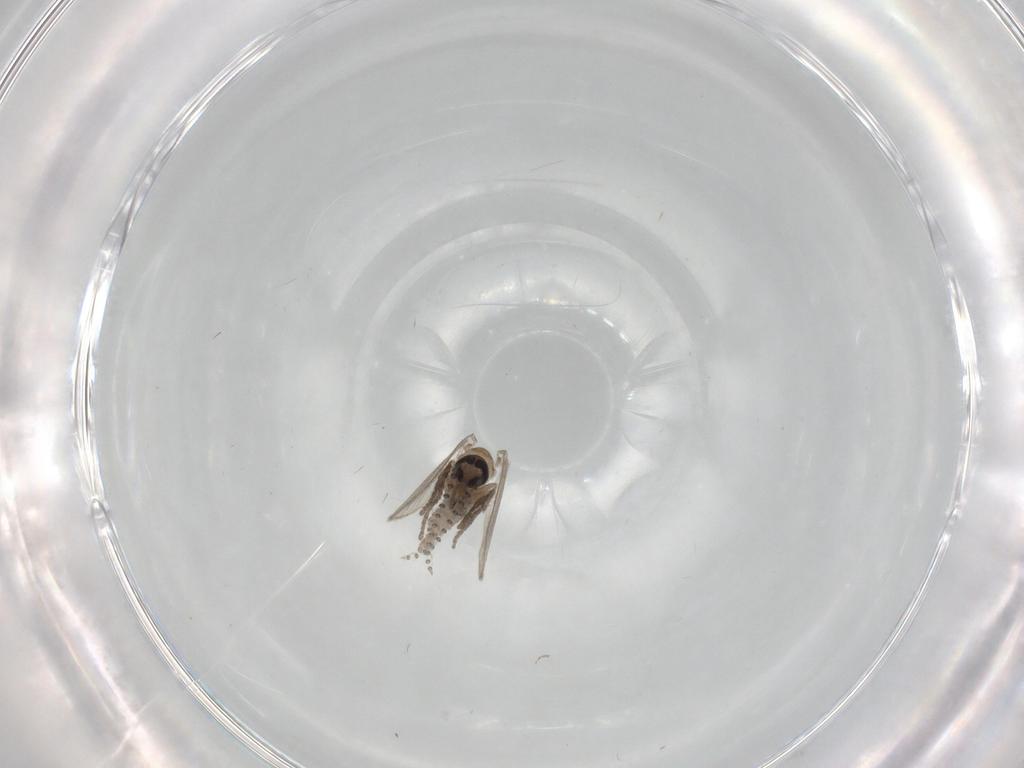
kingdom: Animalia
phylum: Arthropoda
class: Insecta
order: Diptera
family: Psychodidae
